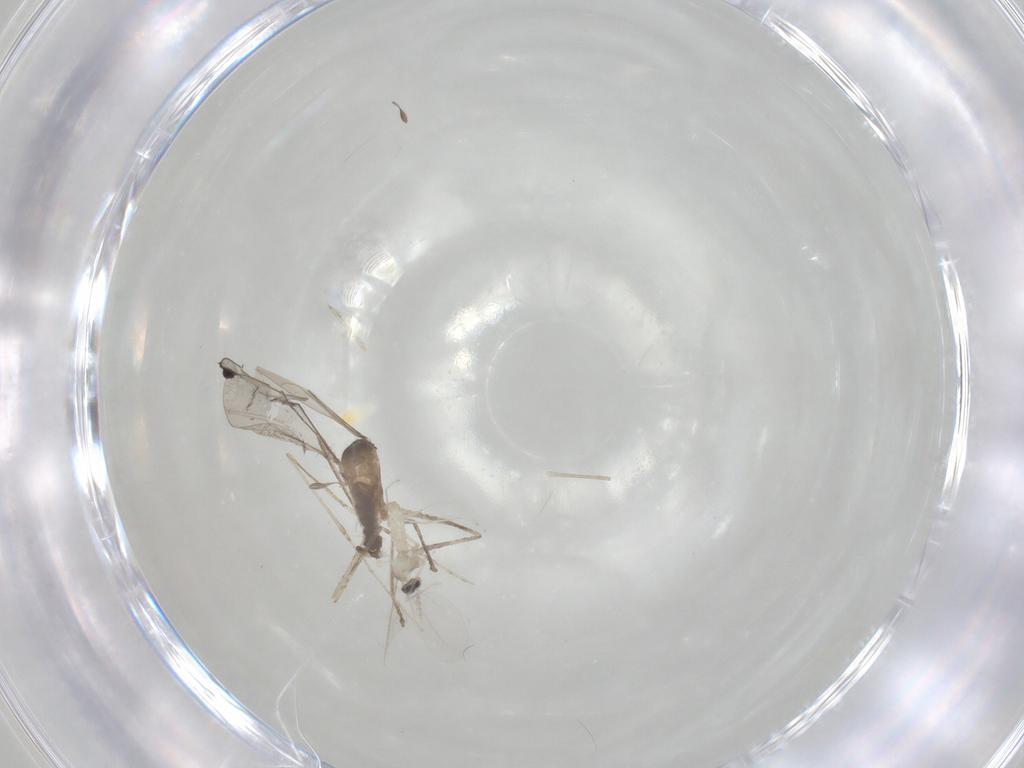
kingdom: Animalia
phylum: Arthropoda
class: Insecta
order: Diptera
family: Cecidomyiidae
